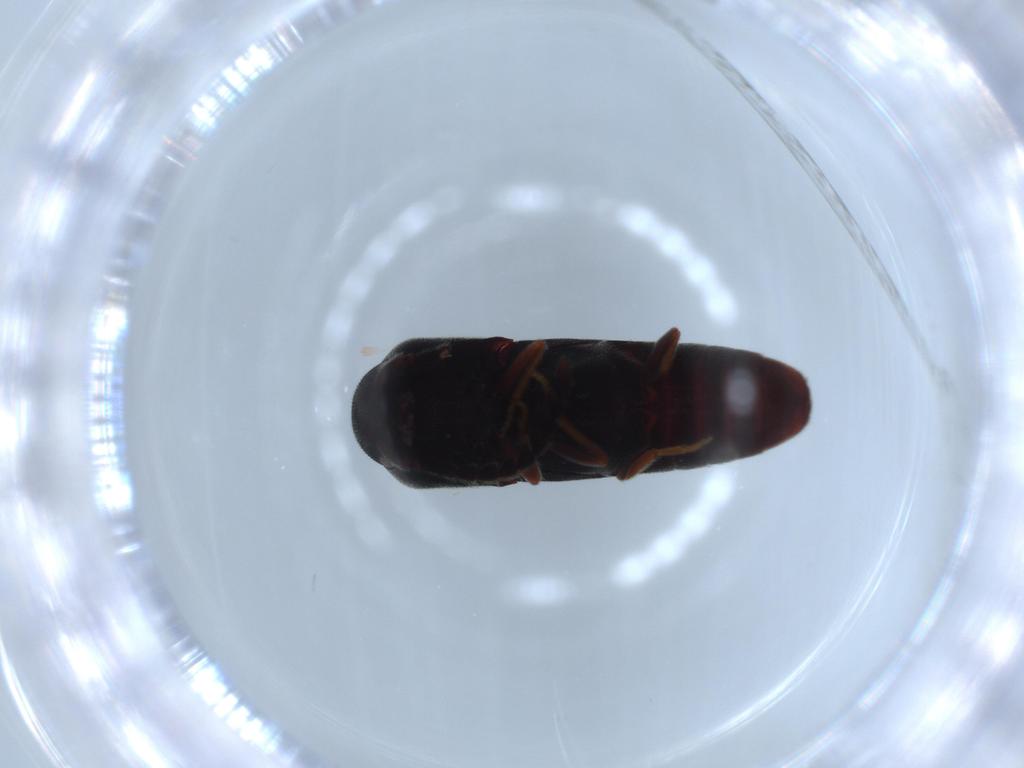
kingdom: Animalia
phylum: Arthropoda
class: Insecta
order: Coleoptera
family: Eucnemidae
